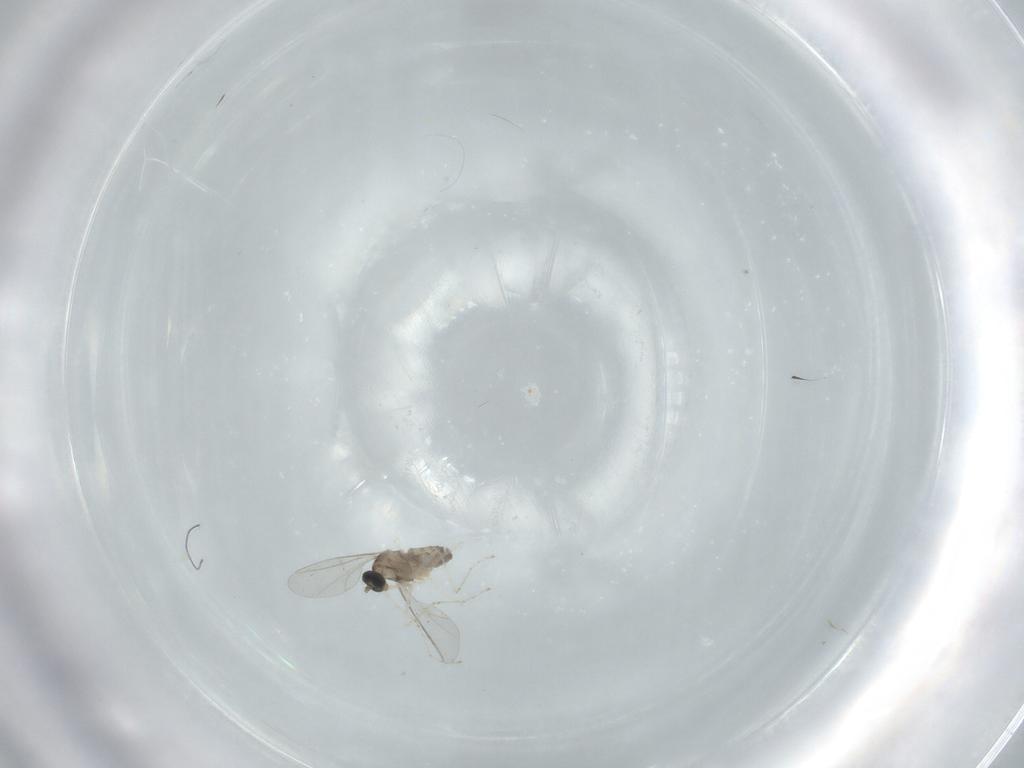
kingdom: Animalia
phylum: Arthropoda
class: Insecta
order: Diptera
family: Cecidomyiidae
